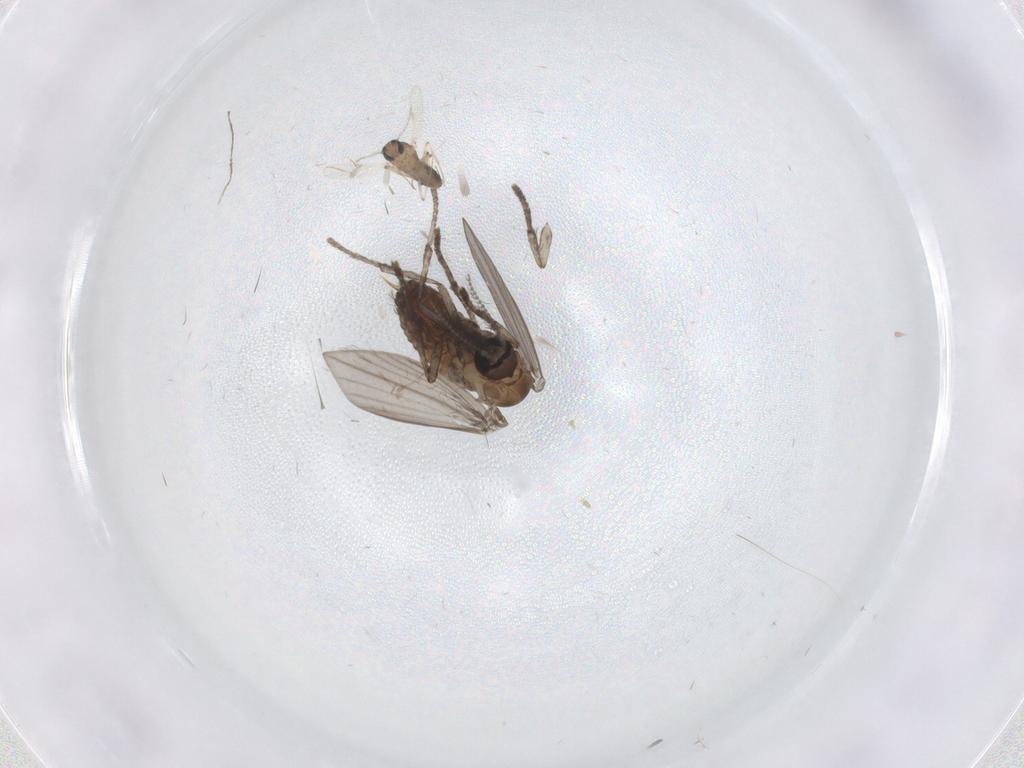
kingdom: Animalia
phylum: Arthropoda
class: Insecta
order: Diptera
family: Psychodidae
